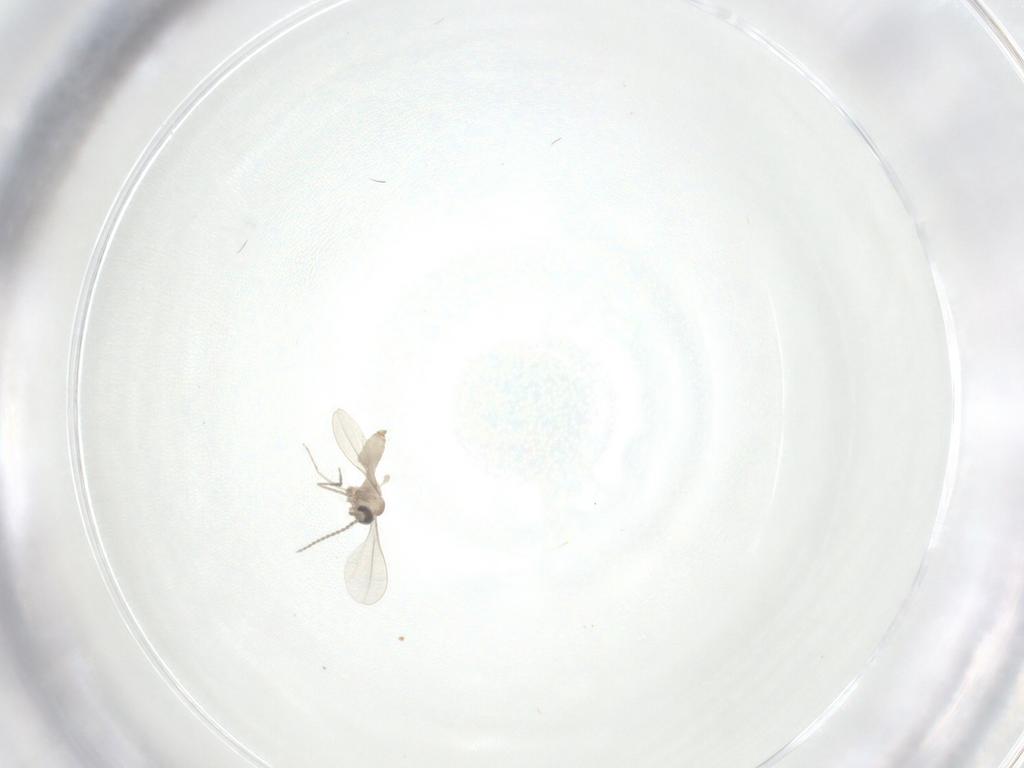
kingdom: Animalia
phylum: Arthropoda
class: Insecta
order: Diptera
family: Cecidomyiidae
